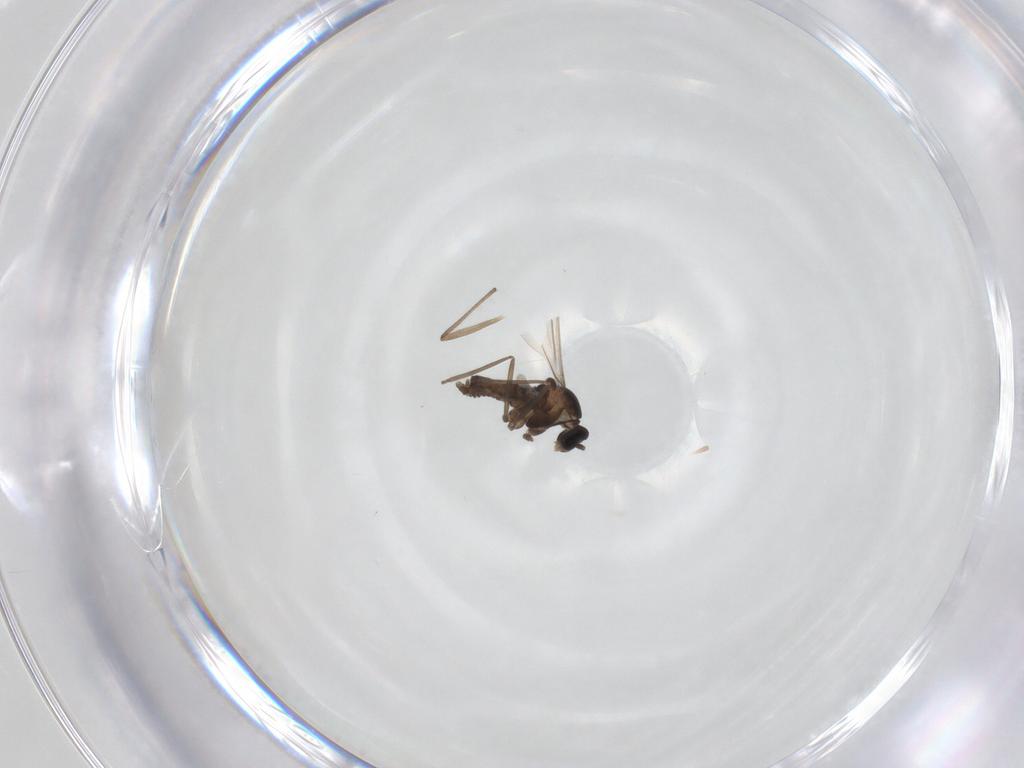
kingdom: Animalia
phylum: Arthropoda
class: Insecta
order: Diptera
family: Chironomidae
